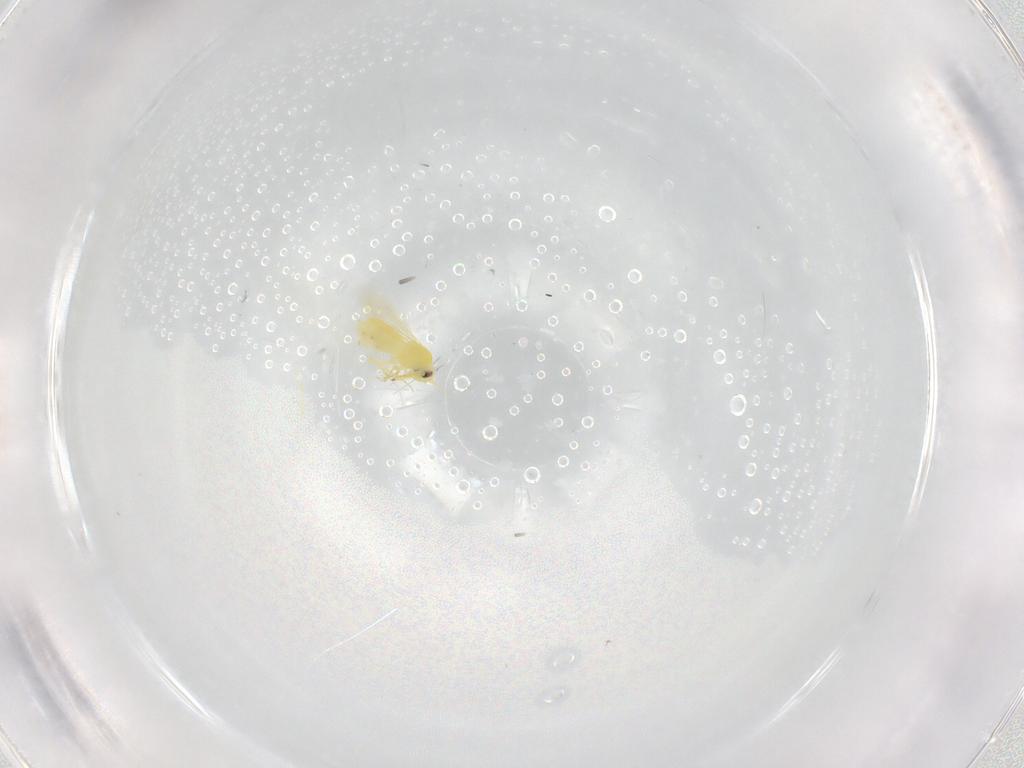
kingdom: Animalia
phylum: Arthropoda
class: Insecta
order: Hemiptera
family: Aleyrodidae
